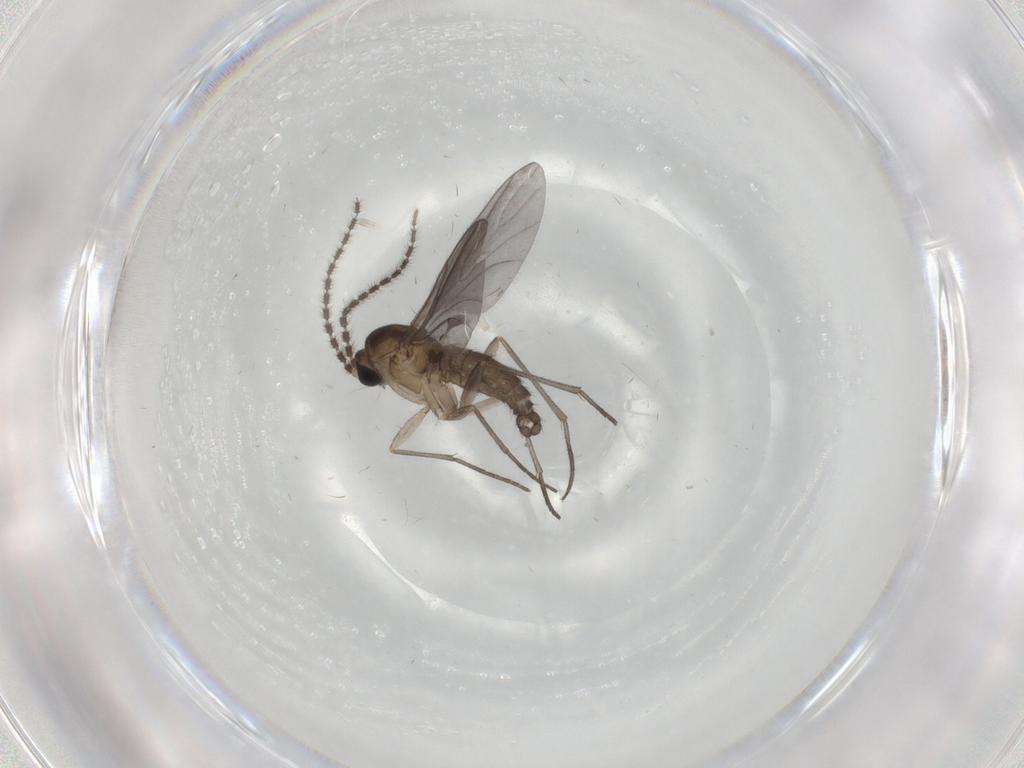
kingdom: Animalia
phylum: Arthropoda
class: Insecta
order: Diptera
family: Sciaridae
